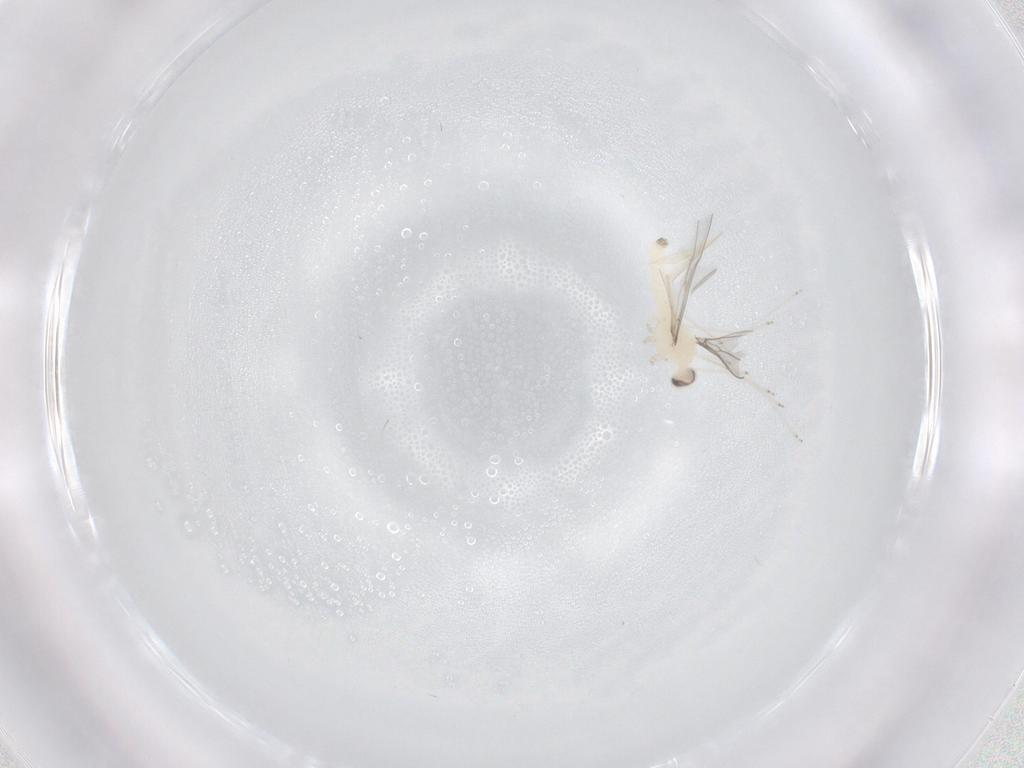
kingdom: Animalia
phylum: Arthropoda
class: Insecta
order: Diptera
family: Cecidomyiidae
